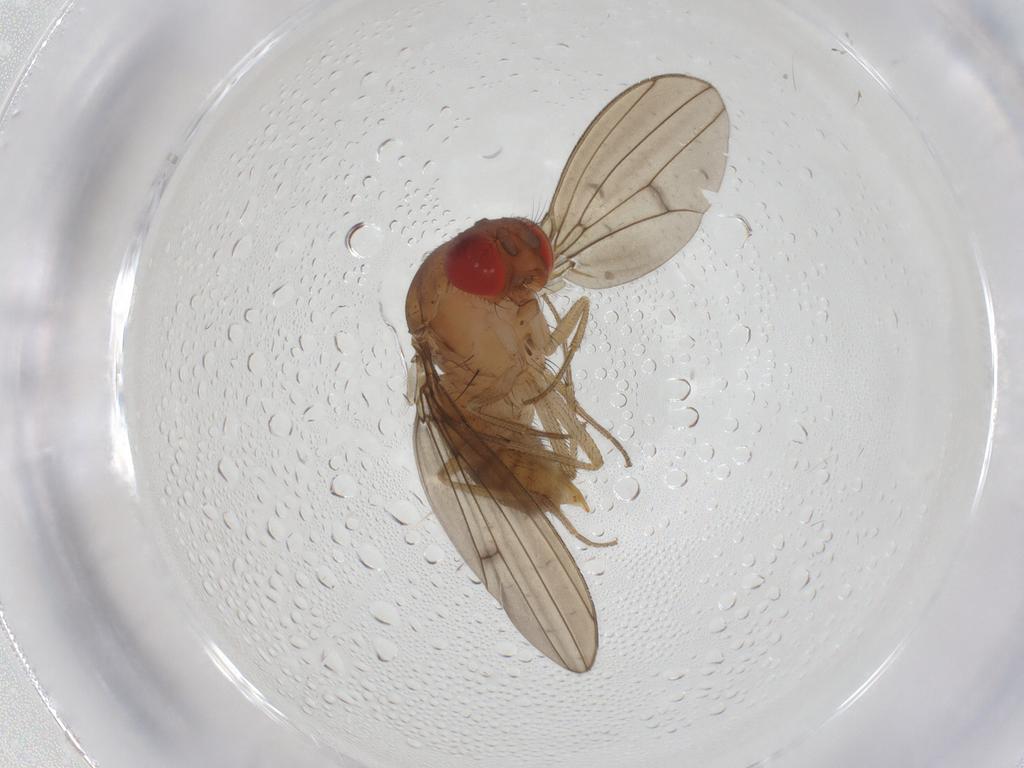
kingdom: Animalia
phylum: Arthropoda
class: Insecta
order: Diptera
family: Drosophilidae
